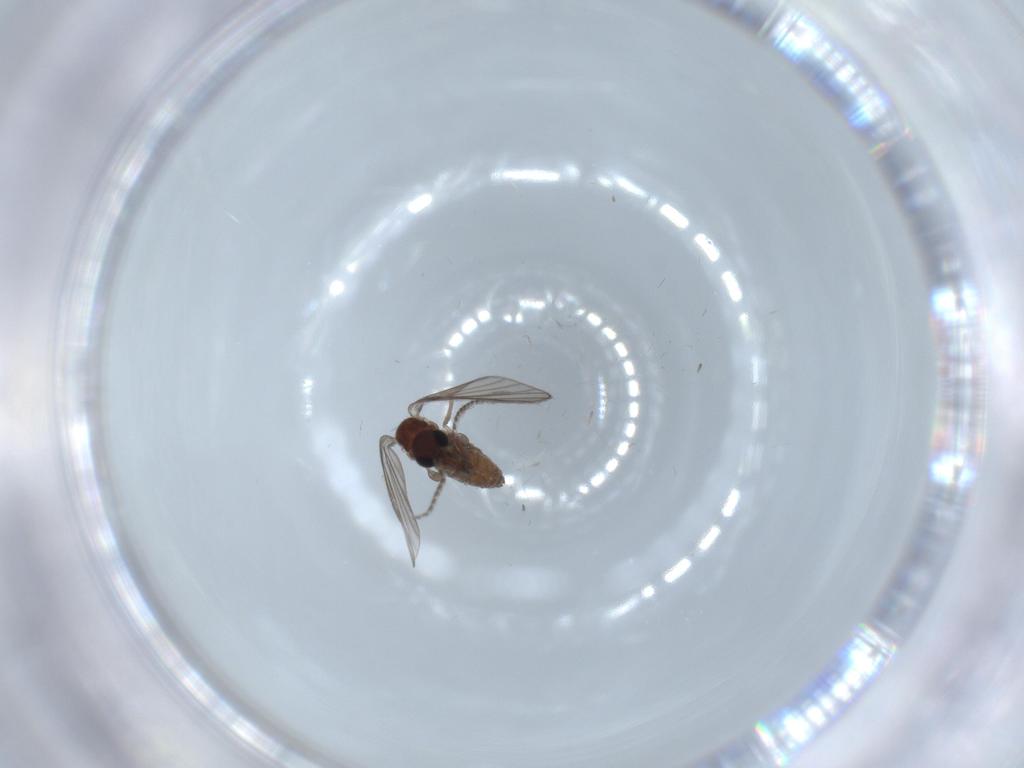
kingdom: Animalia
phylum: Arthropoda
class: Insecta
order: Diptera
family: Psychodidae
